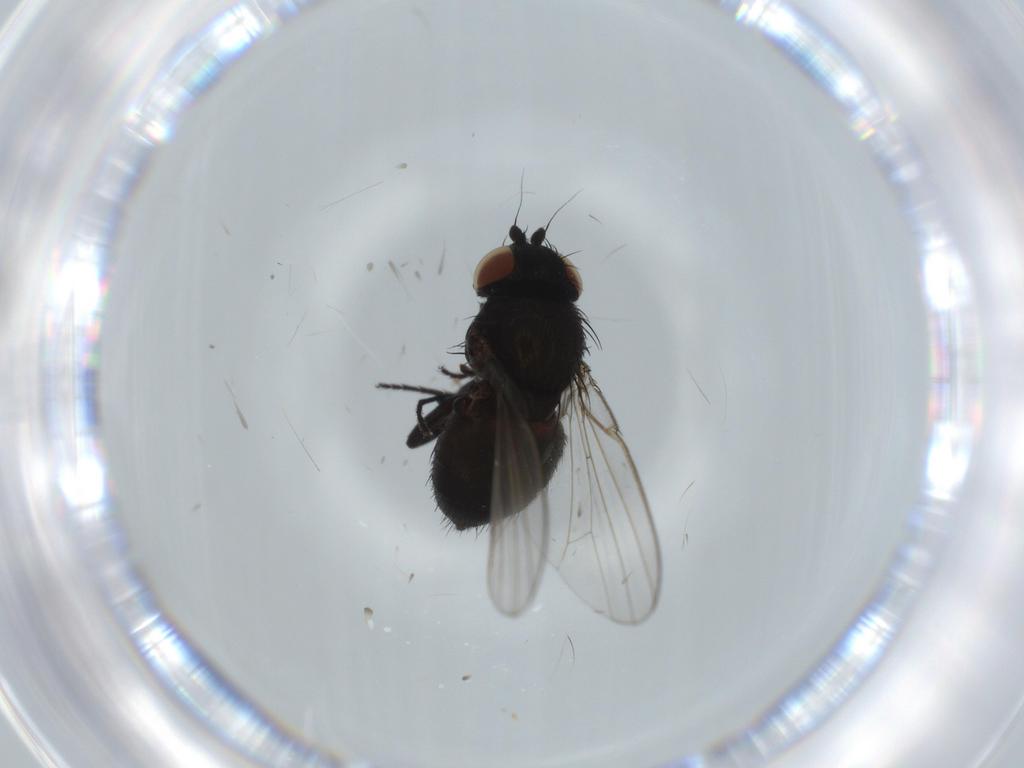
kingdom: Animalia
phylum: Arthropoda
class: Insecta
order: Diptera
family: Milichiidae
